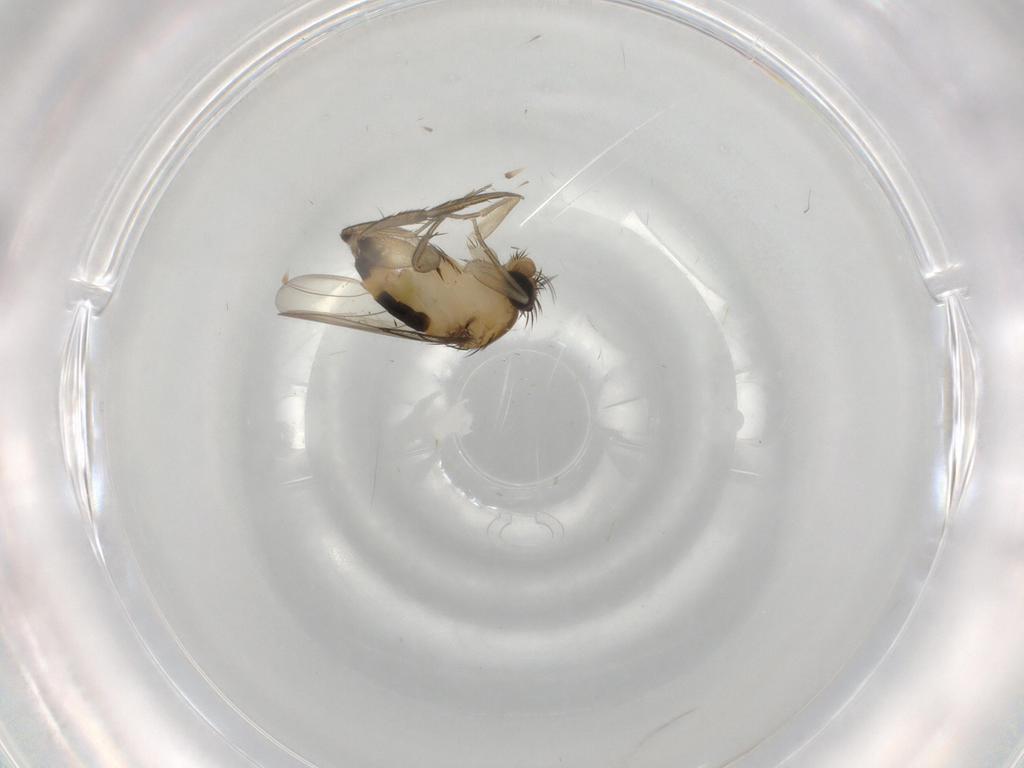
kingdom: Animalia
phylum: Arthropoda
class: Insecta
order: Diptera
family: Phoridae
